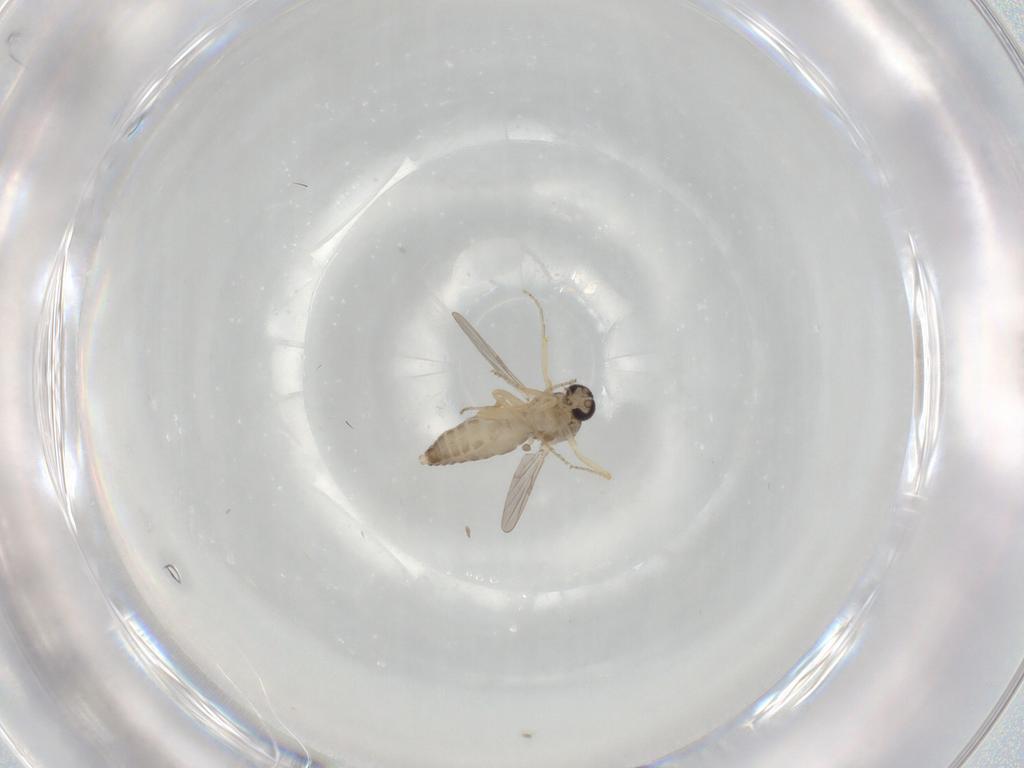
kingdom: Animalia
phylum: Arthropoda
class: Insecta
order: Diptera
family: Ceratopogonidae
